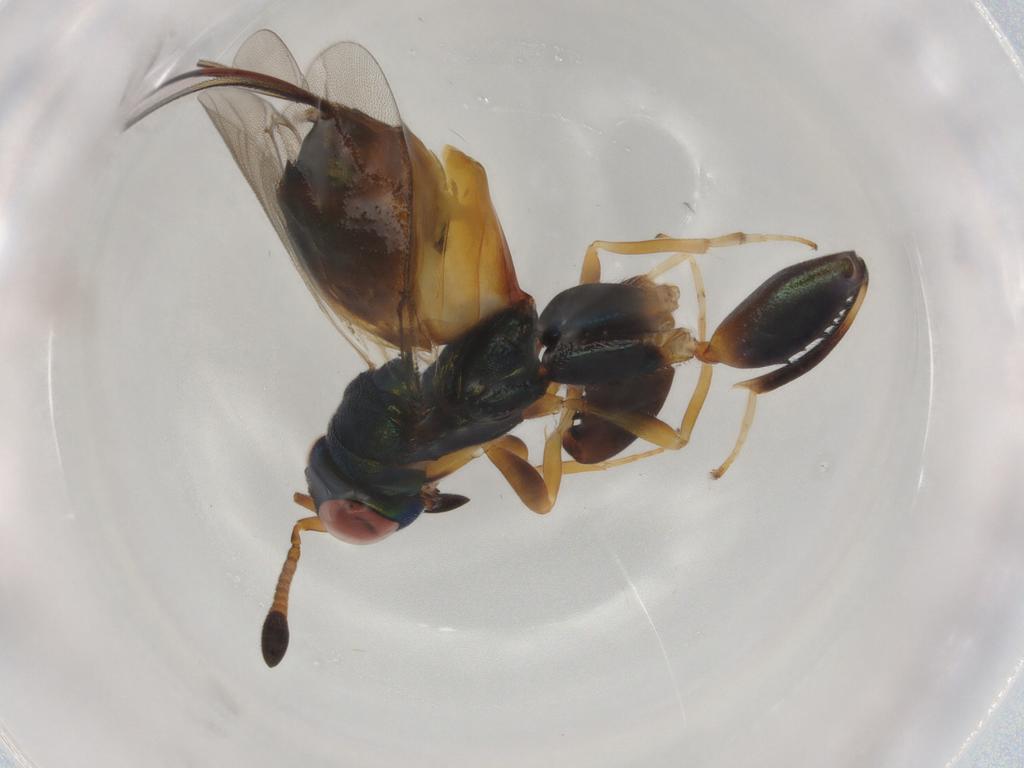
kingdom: Animalia
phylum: Arthropoda
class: Insecta
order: Hymenoptera
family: Torymidae
